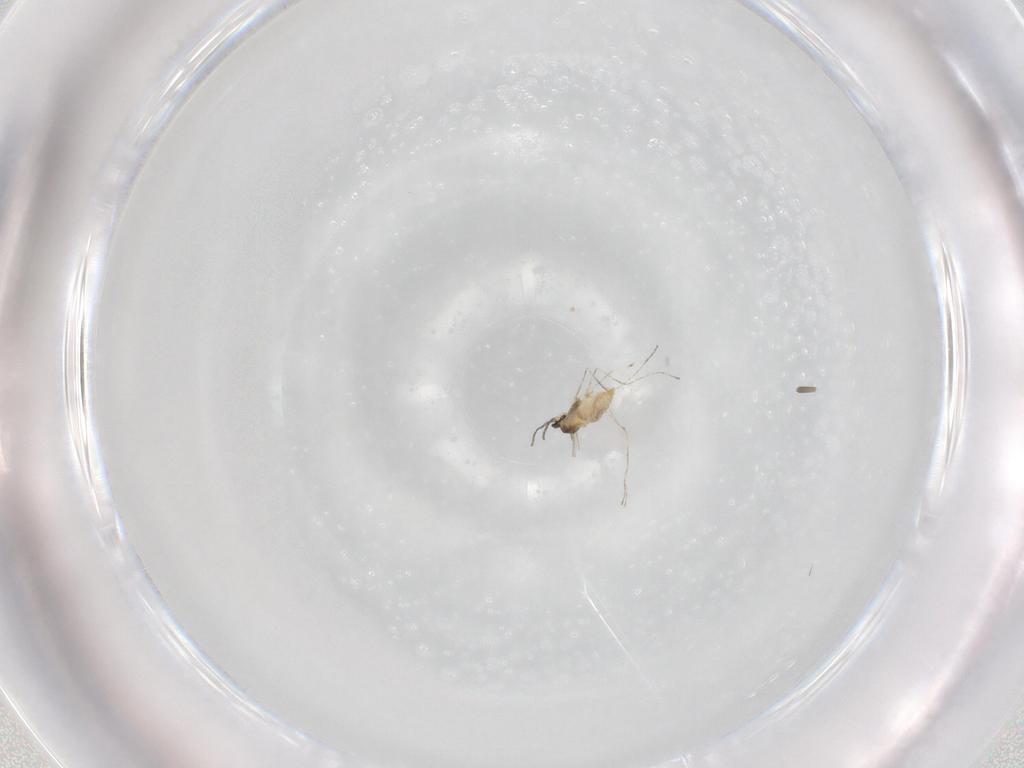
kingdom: Animalia
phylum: Arthropoda
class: Insecta
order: Diptera
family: Cecidomyiidae
